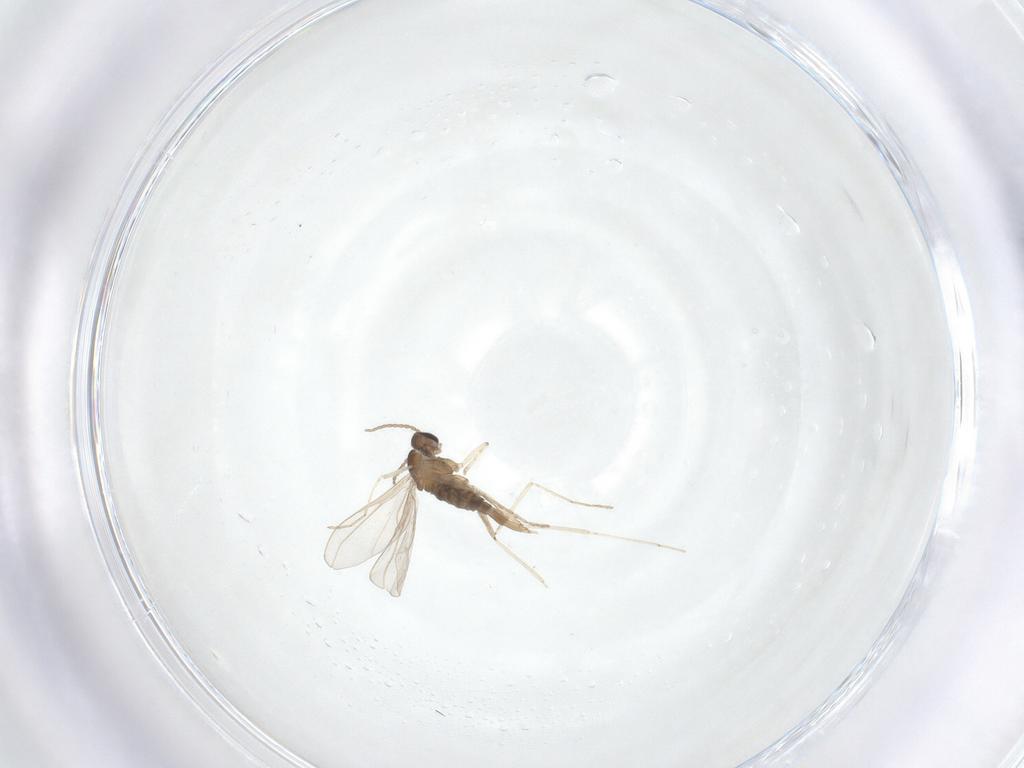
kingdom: Animalia
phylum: Arthropoda
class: Insecta
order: Diptera
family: Cecidomyiidae
